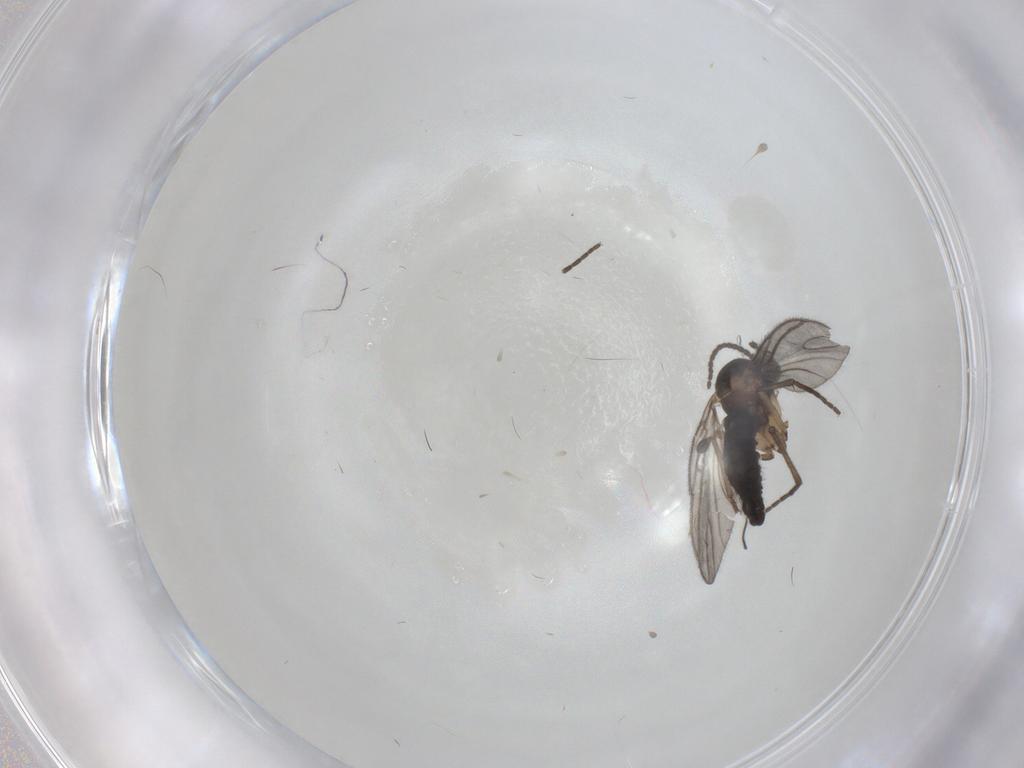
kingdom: Animalia
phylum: Arthropoda
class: Insecta
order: Diptera
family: Sciaridae
